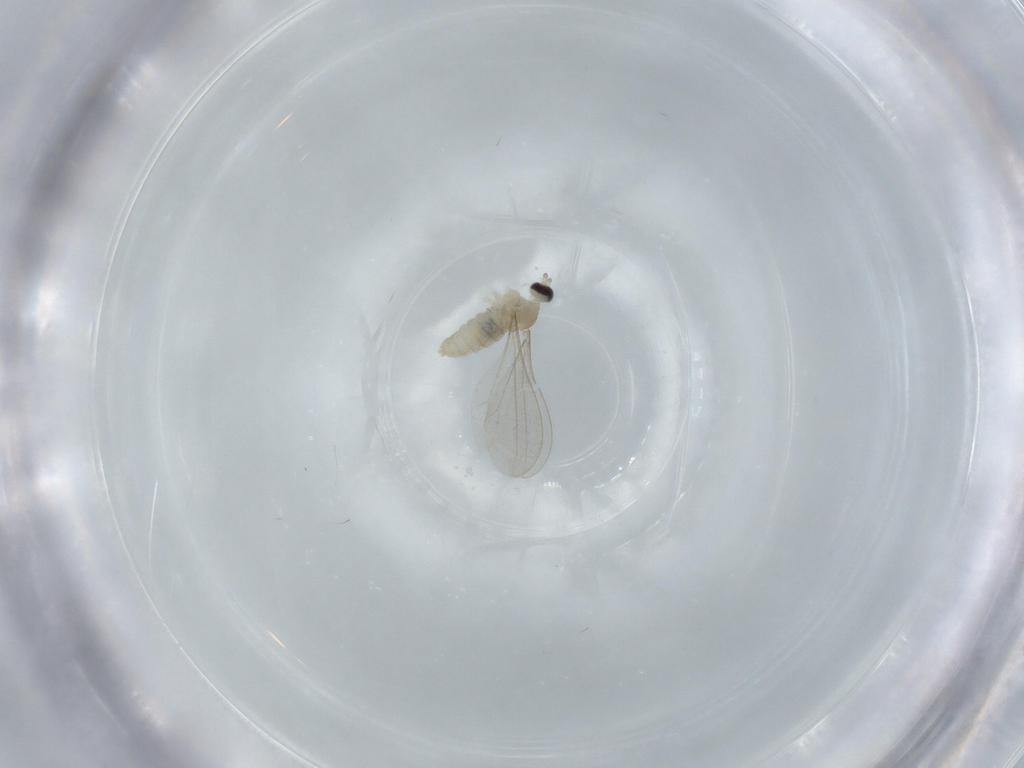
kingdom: Animalia
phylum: Arthropoda
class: Insecta
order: Diptera
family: Cecidomyiidae
